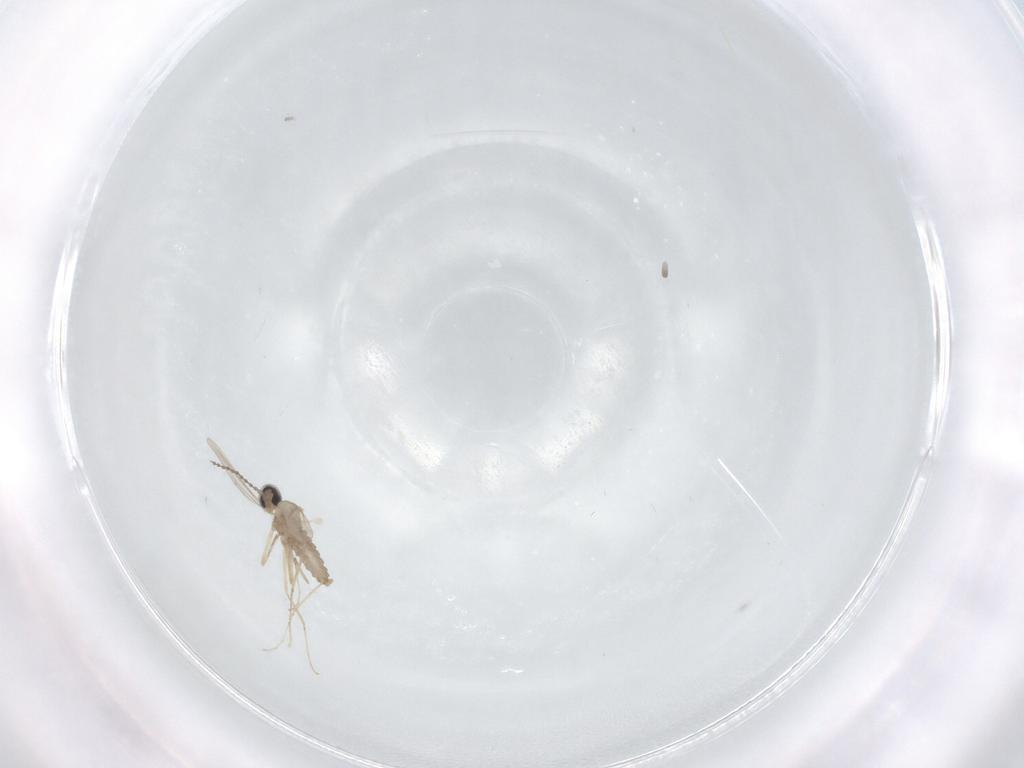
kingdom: Animalia
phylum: Arthropoda
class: Insecta
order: Diptera
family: Cecidomyiidae
